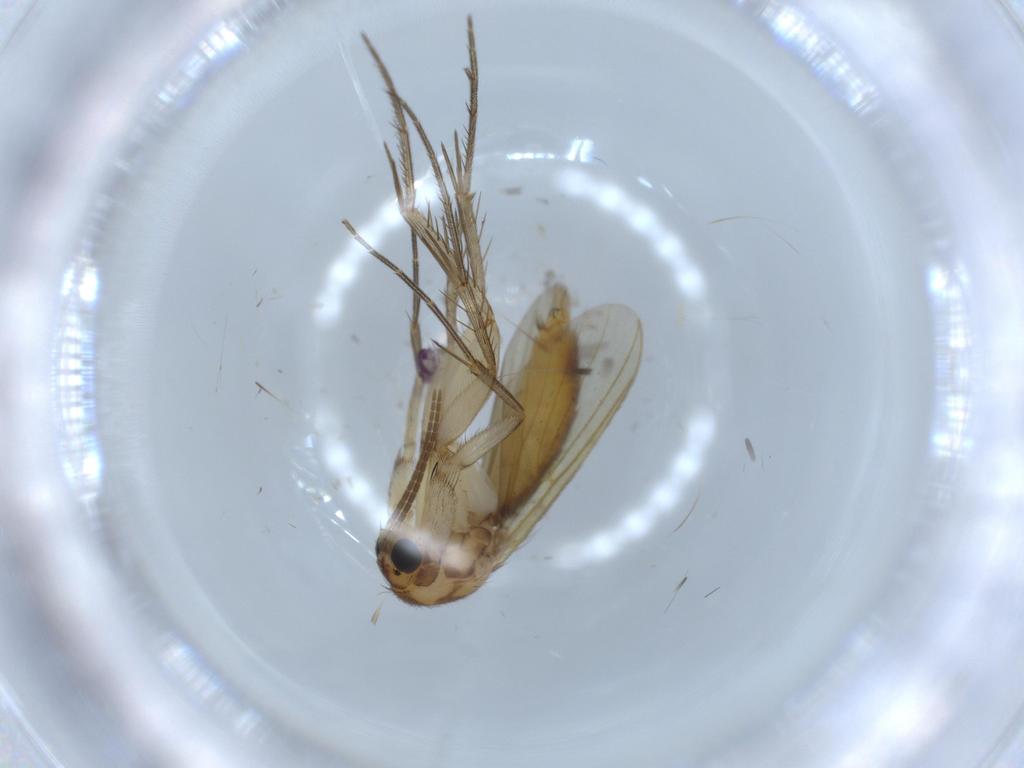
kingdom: Animalia
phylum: Arthropoda
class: Insecta
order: Diptera
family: Mycetophilidae
